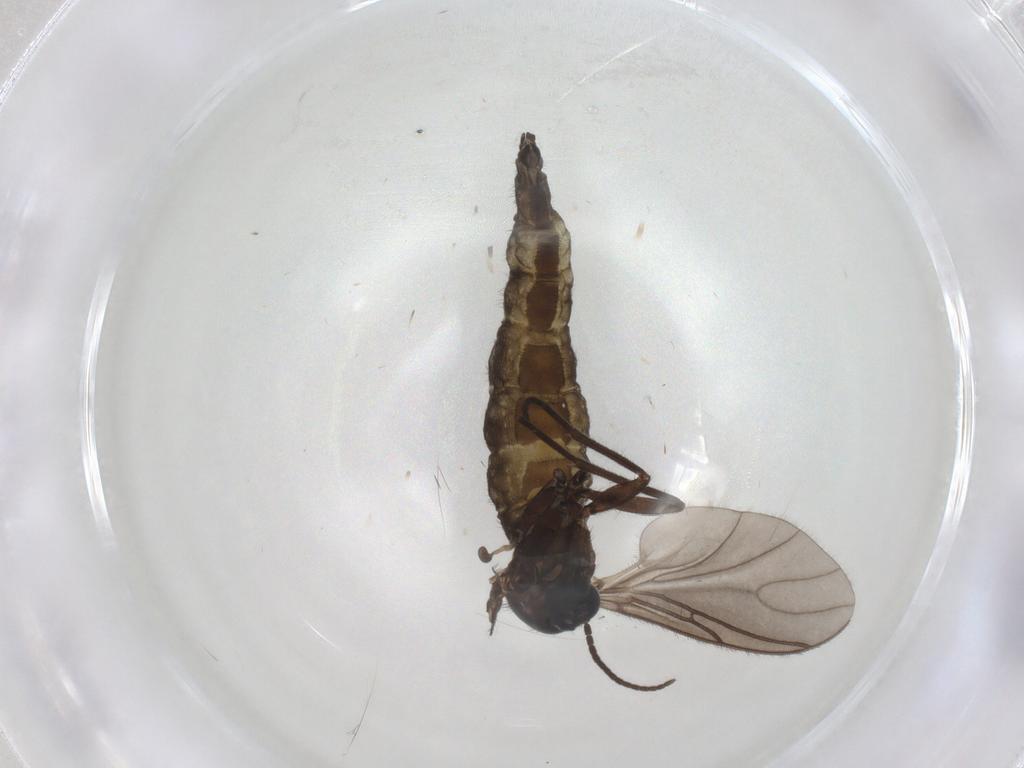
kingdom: Animalia
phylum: Arthropoda
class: Insecta
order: Diptera
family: Sciaridae
